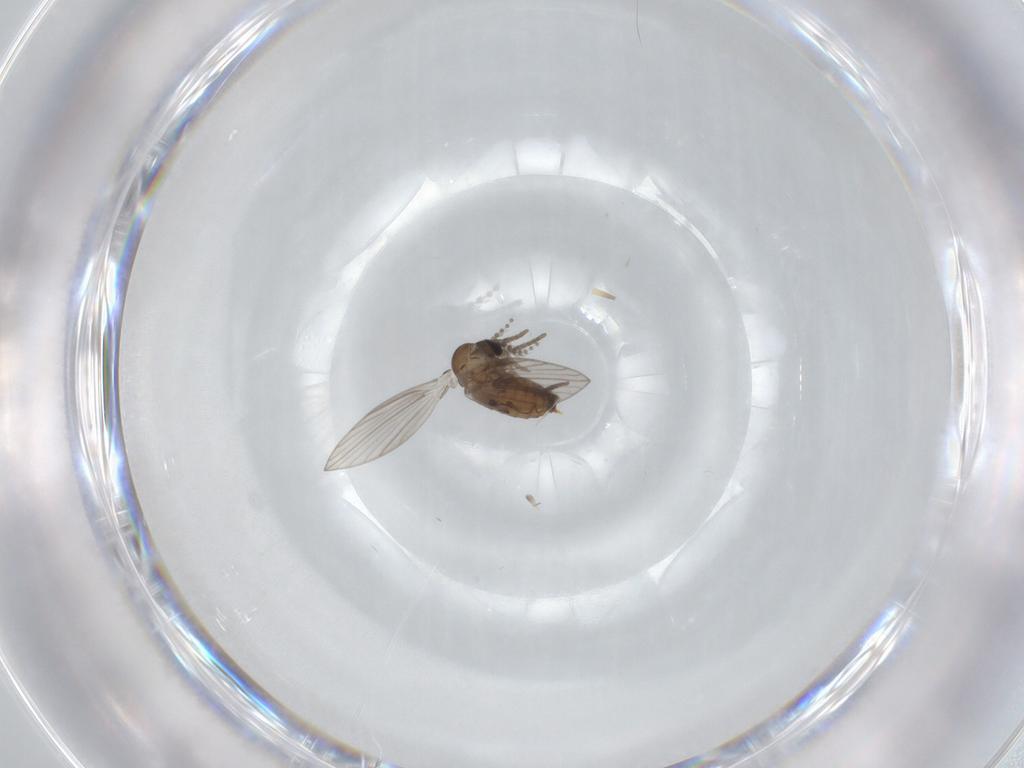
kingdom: Animalia
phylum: Arthropoda
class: Insecta
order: Diptera
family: Psychodidae
